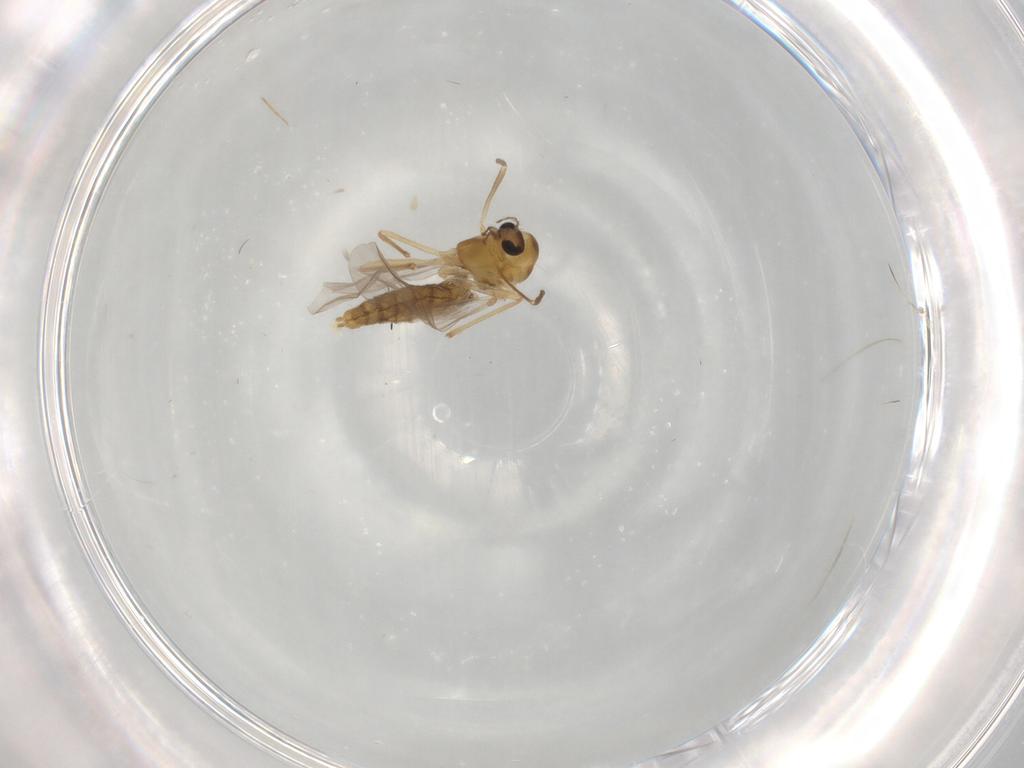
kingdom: Animalia
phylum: Arthropoda
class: Insecta
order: Diptera
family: Chironomidae
